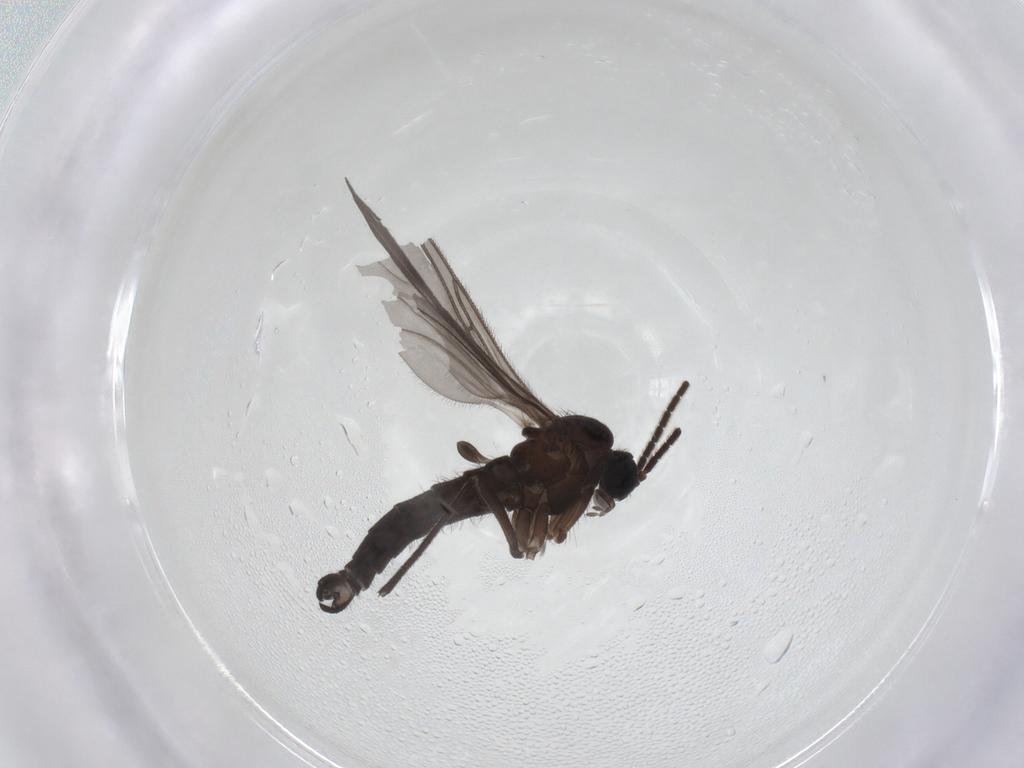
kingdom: Animalia
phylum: Arthropoda
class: Insecta
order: Diptera
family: Sciaridae
